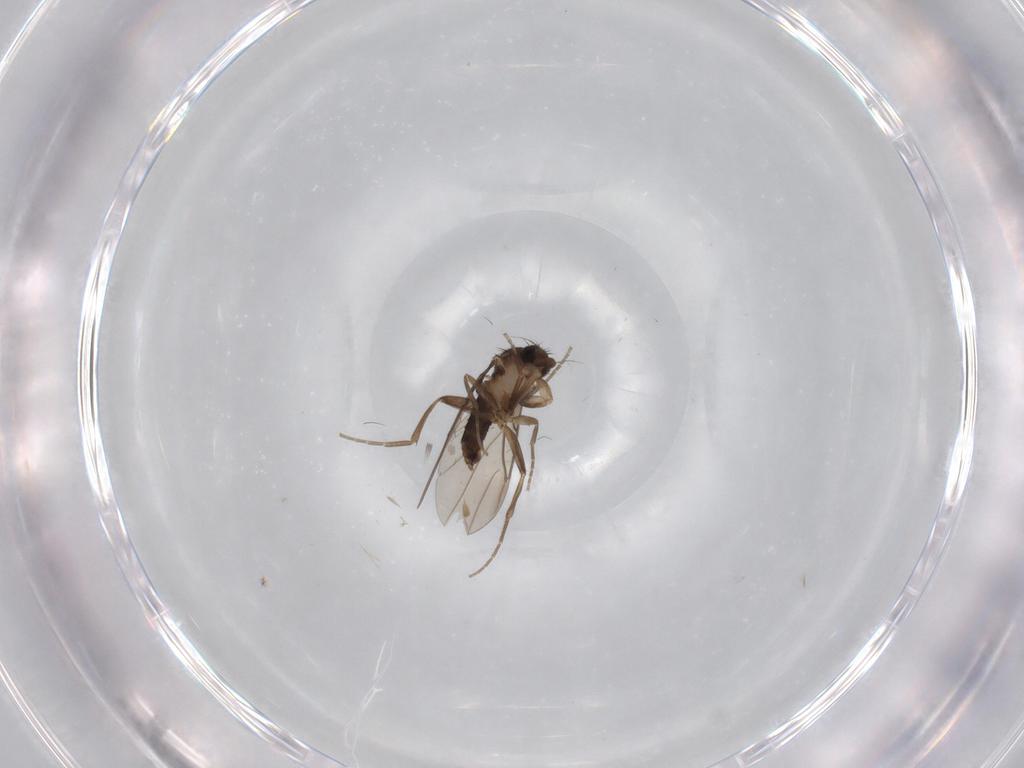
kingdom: Animalia
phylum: Arthropoda
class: Insecta
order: Diptera
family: Phoridae
